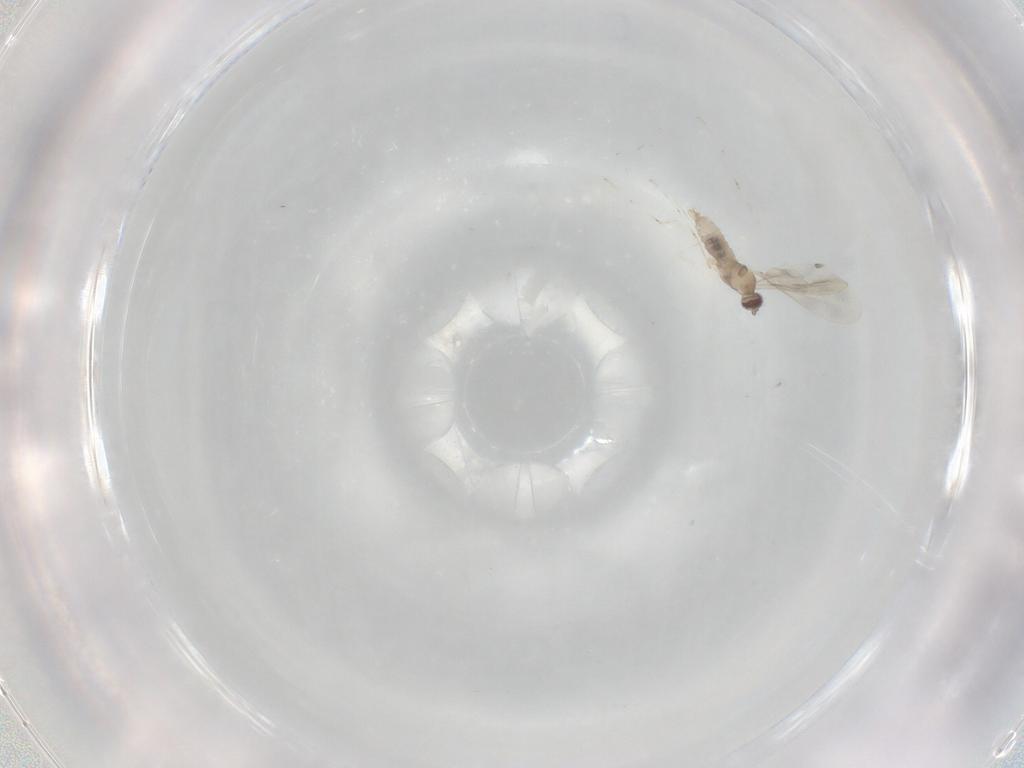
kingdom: Animalia
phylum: Arthropoda
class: Insecta
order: Diptera
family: Cecidomyiidae
